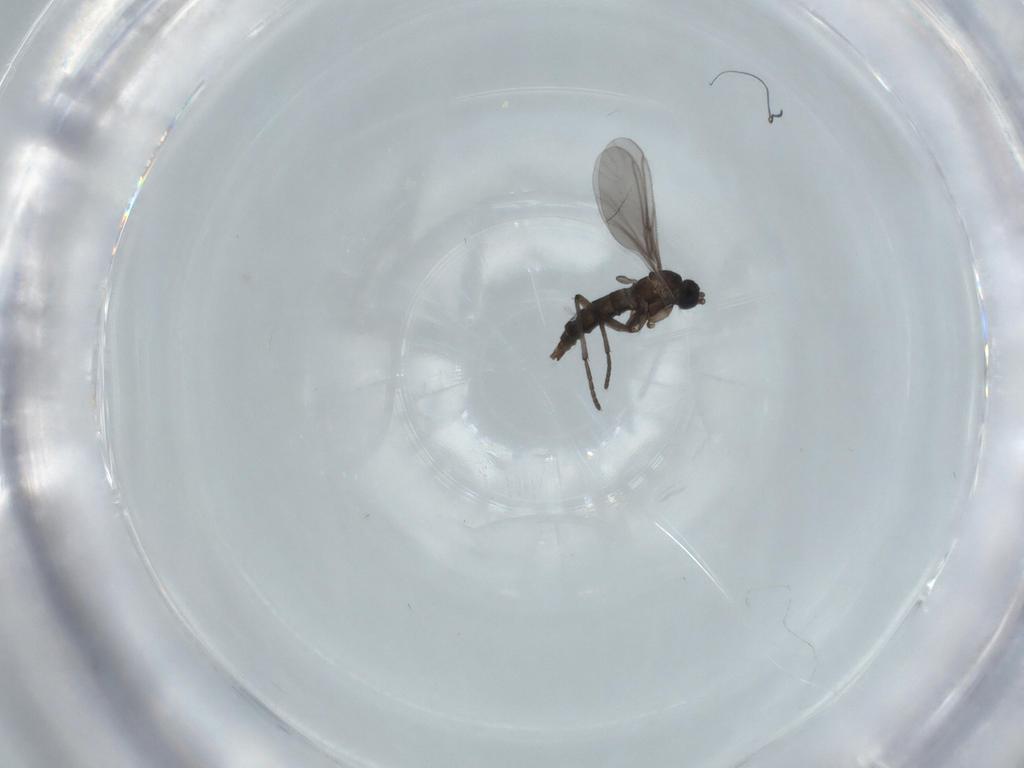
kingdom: Animalia
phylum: Arthropoda
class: Insecta
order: Diptera
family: Sciaridae
